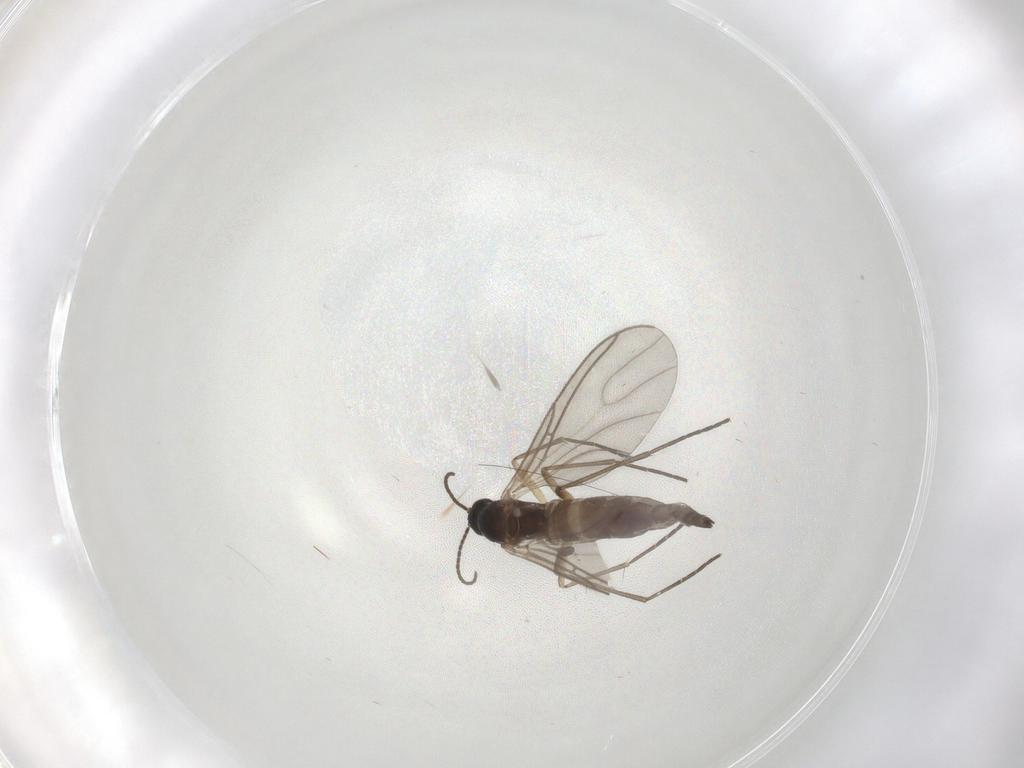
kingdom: Animalia
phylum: Arthropoda
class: Insecta
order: Diptera
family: Sciaridae
